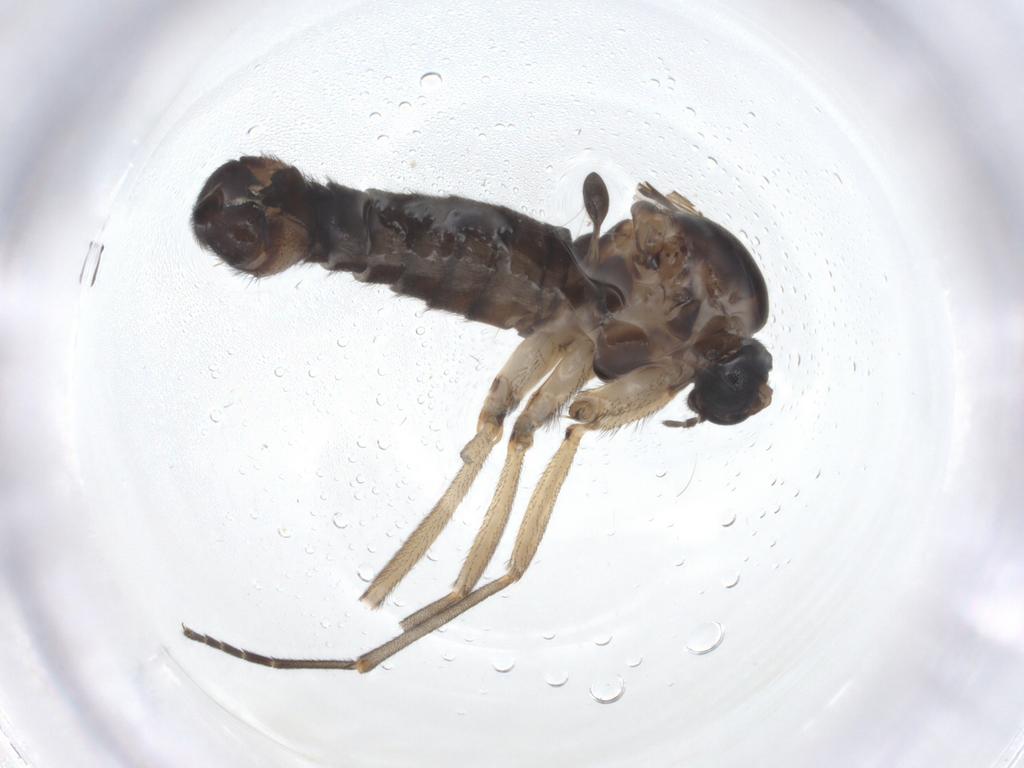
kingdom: Animalia
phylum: Arthropoda
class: Insecta
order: Diptera
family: Sciaridae
